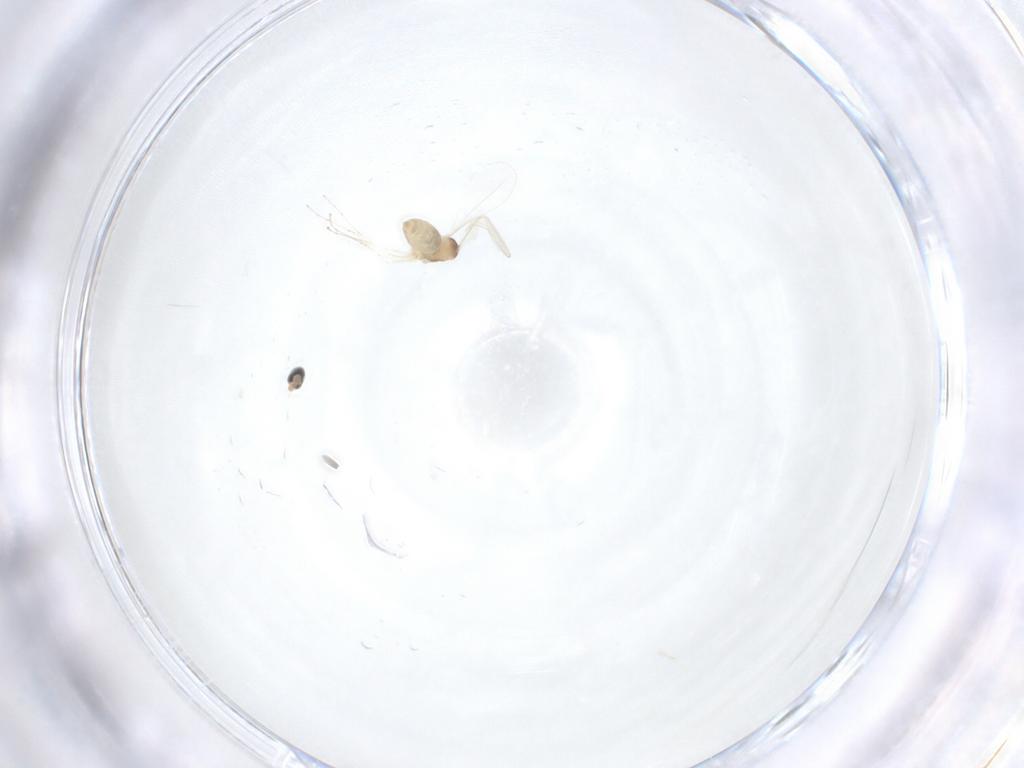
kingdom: Animalia
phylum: Arthropoda
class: Insecta
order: Diptera
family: Cecidomyiidae
